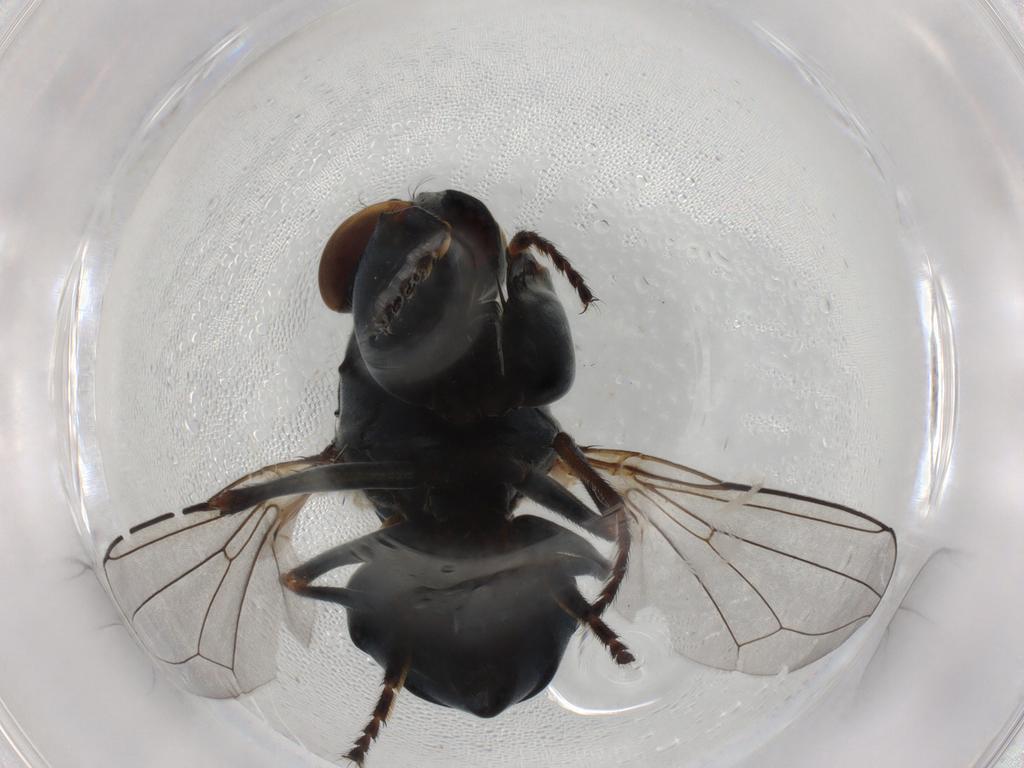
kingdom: Animalia
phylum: Arthropoda
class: Insecta
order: Diptera
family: Ephydridae
